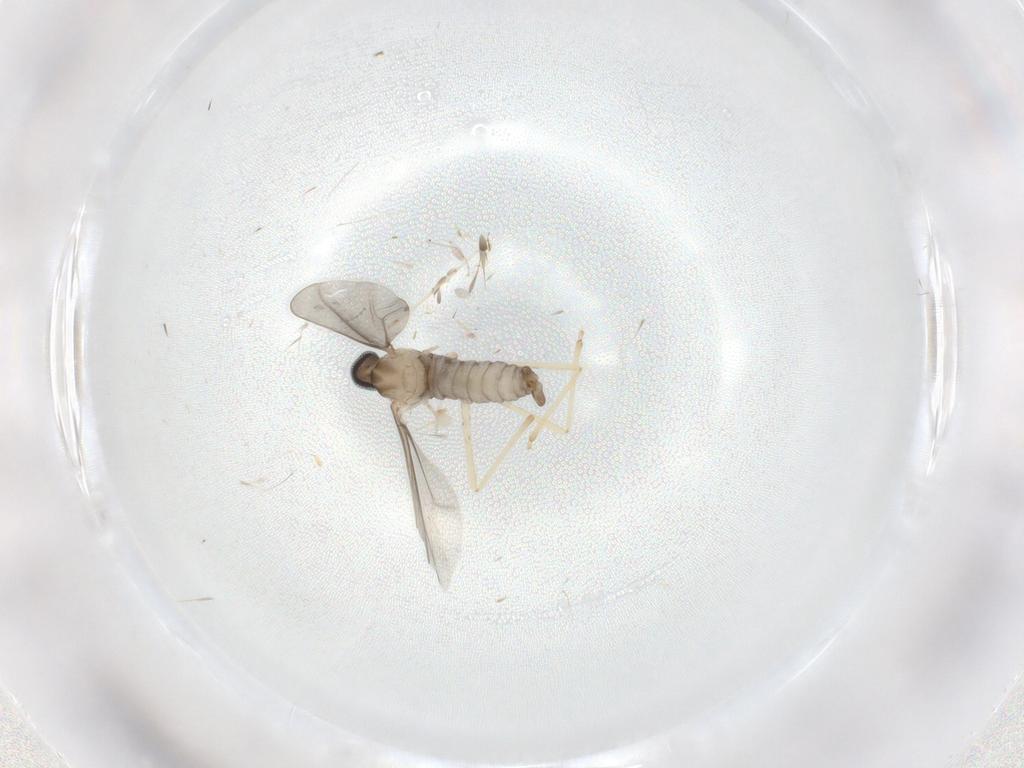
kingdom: Animalia
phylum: Arthropoda
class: Insecta
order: Diptera
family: Cecidomyiidae
